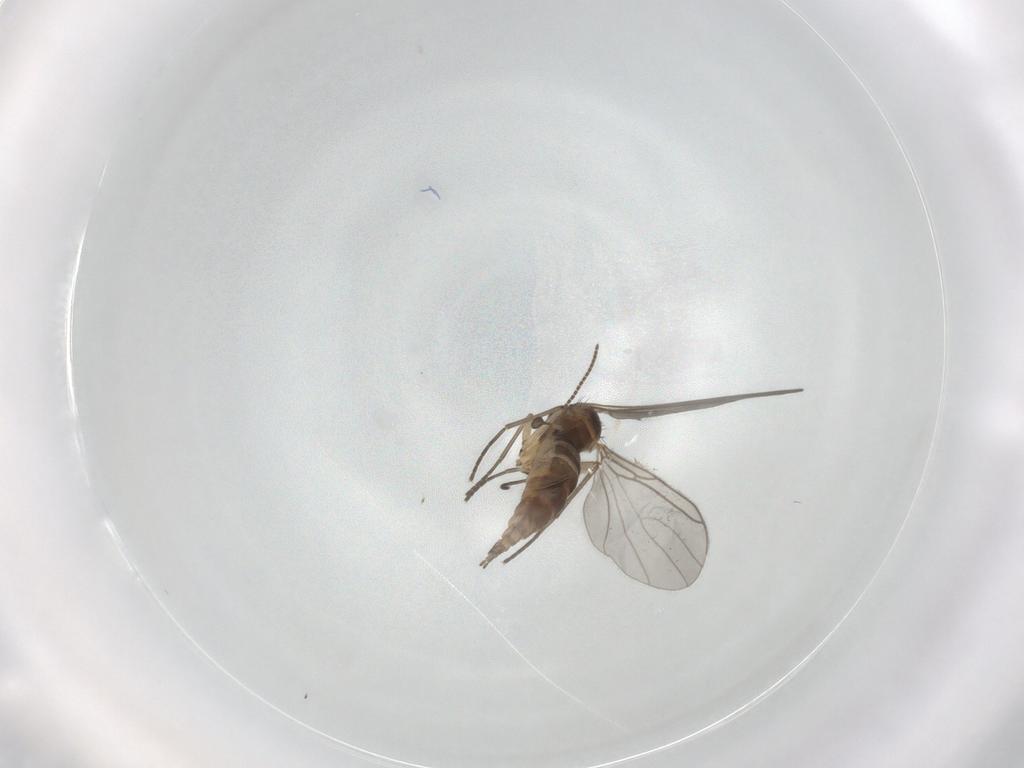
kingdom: Animalia
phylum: Arthropoda
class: Insecta
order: Diptera
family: Sciaridae
